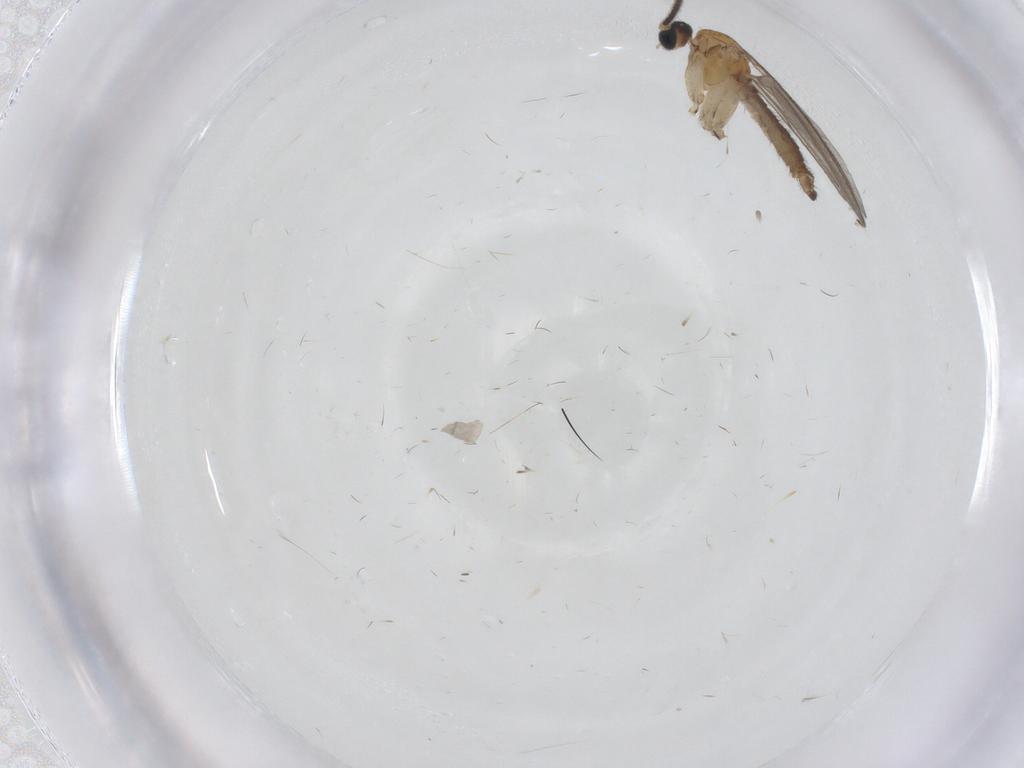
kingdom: Animalia
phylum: Arthropoda
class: Insecta
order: Diptera
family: Sciaridae
